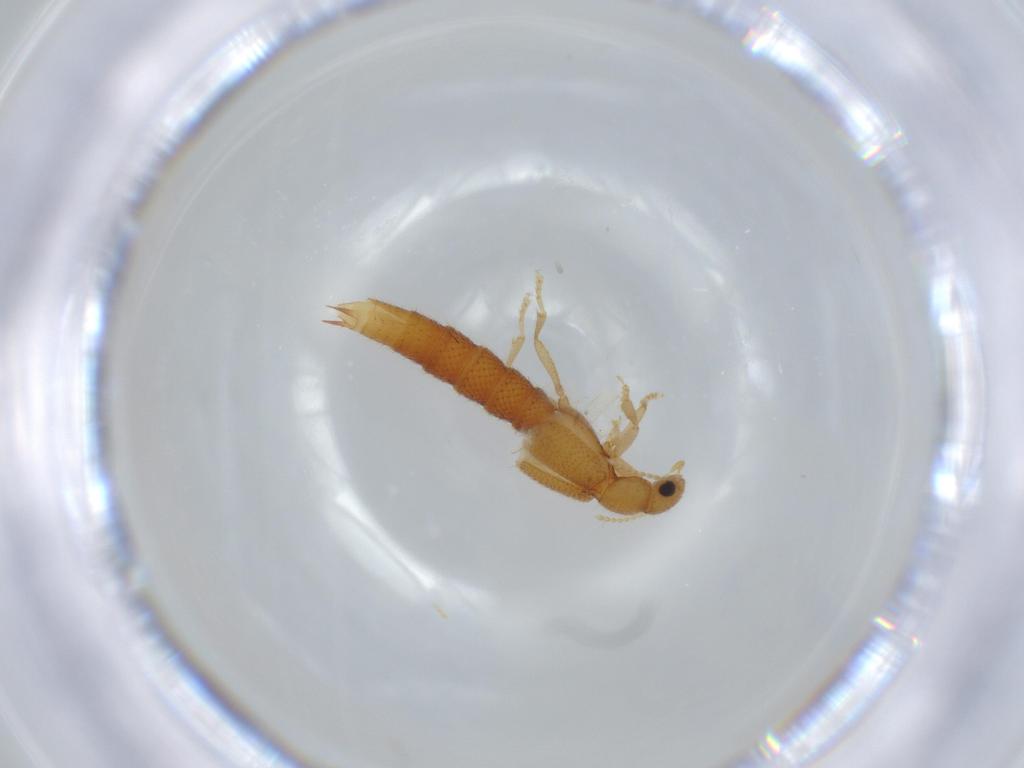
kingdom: Animalia
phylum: Arthropoda
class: Insecta
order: Coleoptera
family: Staphylinidae
